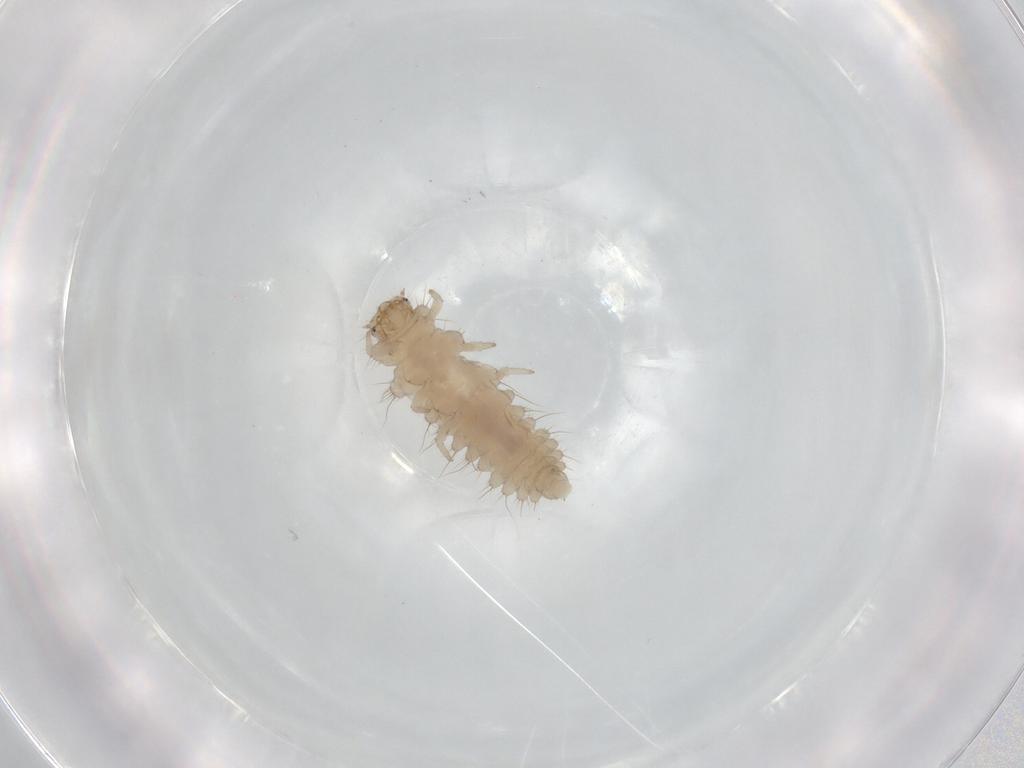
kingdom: Animalia
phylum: Arthropoda
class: Insecta
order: Coleoptera
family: Coccinellidae
